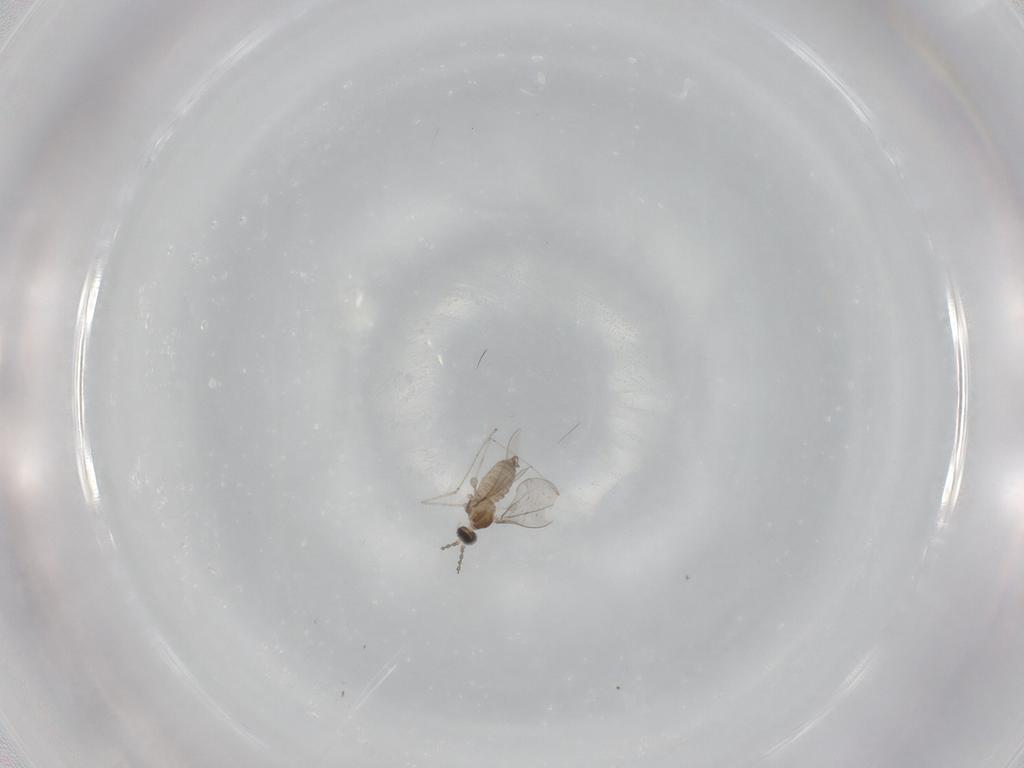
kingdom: Animalia
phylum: Arthropoda
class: Insecta
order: Diptera
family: Cecidomyiidae
